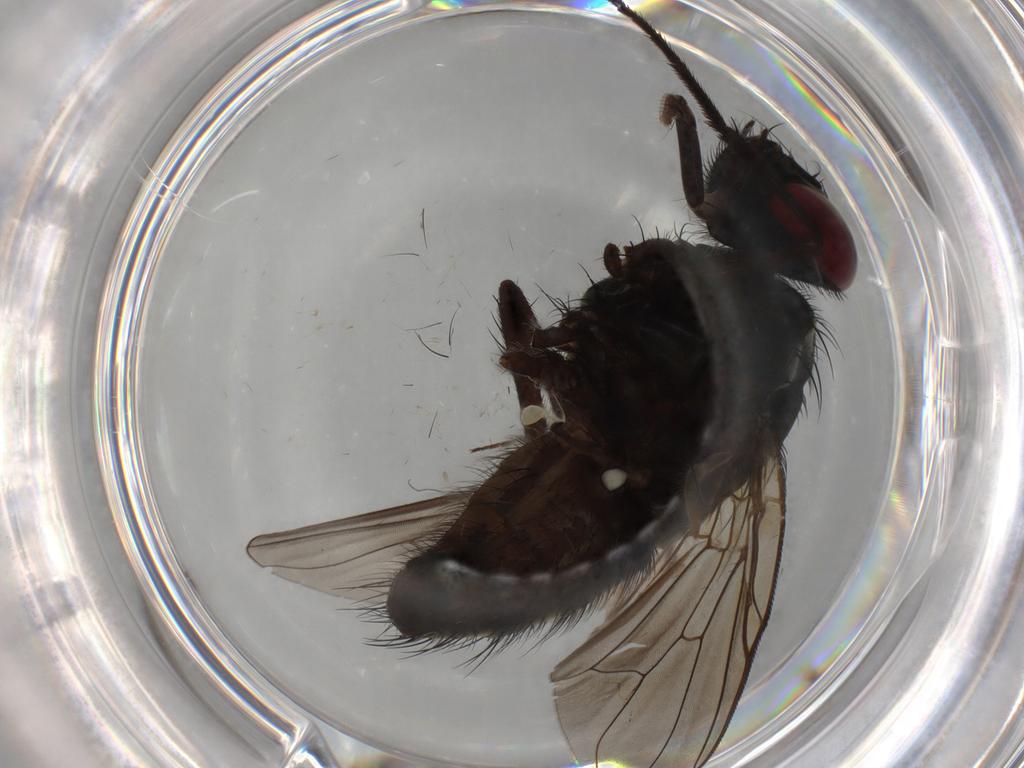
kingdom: Animalia
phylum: Arthropoda
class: Insecta
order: Diptera
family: Muscidae
